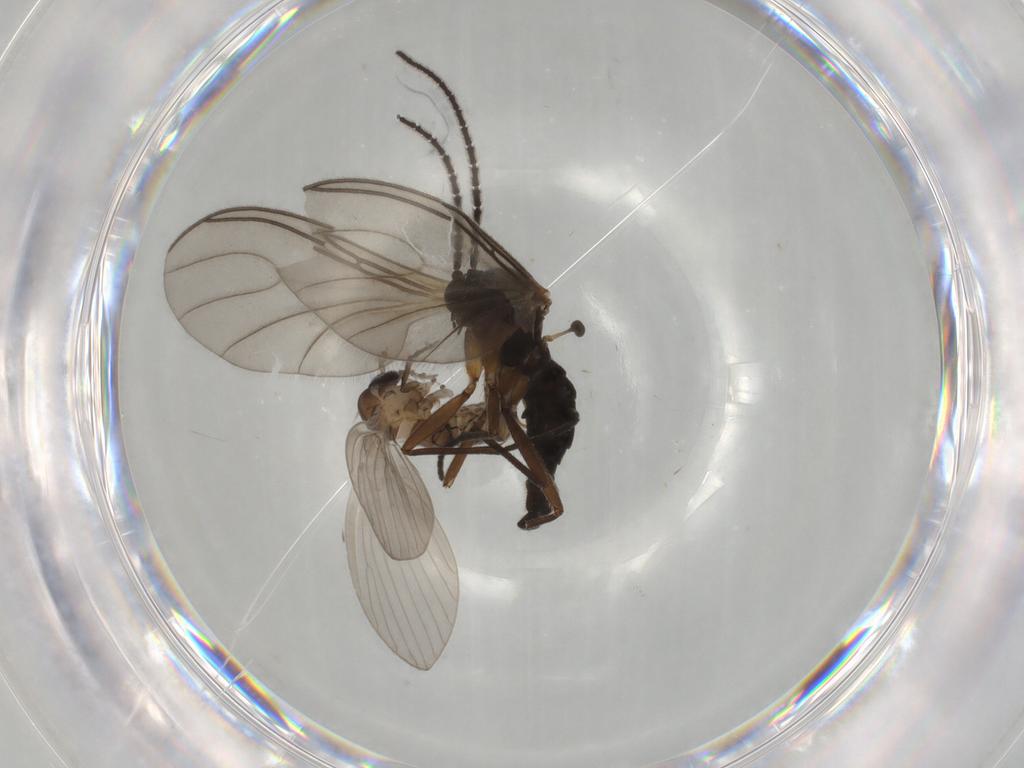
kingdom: Animalia
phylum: Arthropoda
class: Insecta
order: Diptera
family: Psychodidae
